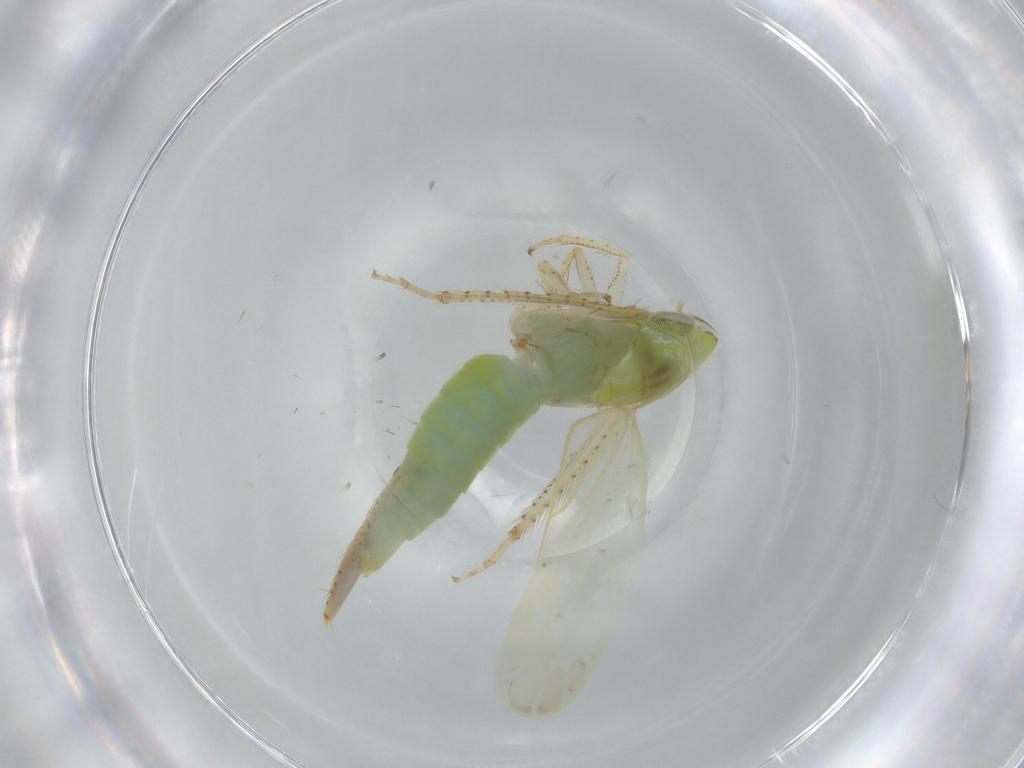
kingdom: Animalia
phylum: Arthropoda
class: Insecta
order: Hemiptera
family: Cicadellidae
